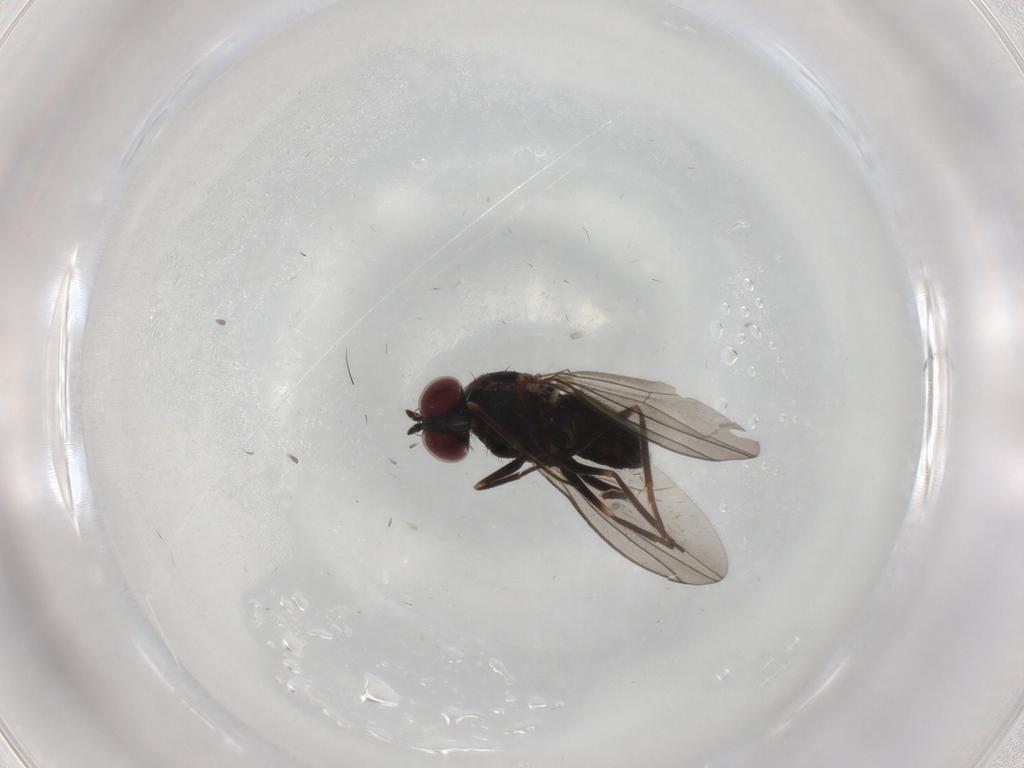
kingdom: Animalia
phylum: Arthropoda
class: Insecta
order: Diptera
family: Dolichopodidae
